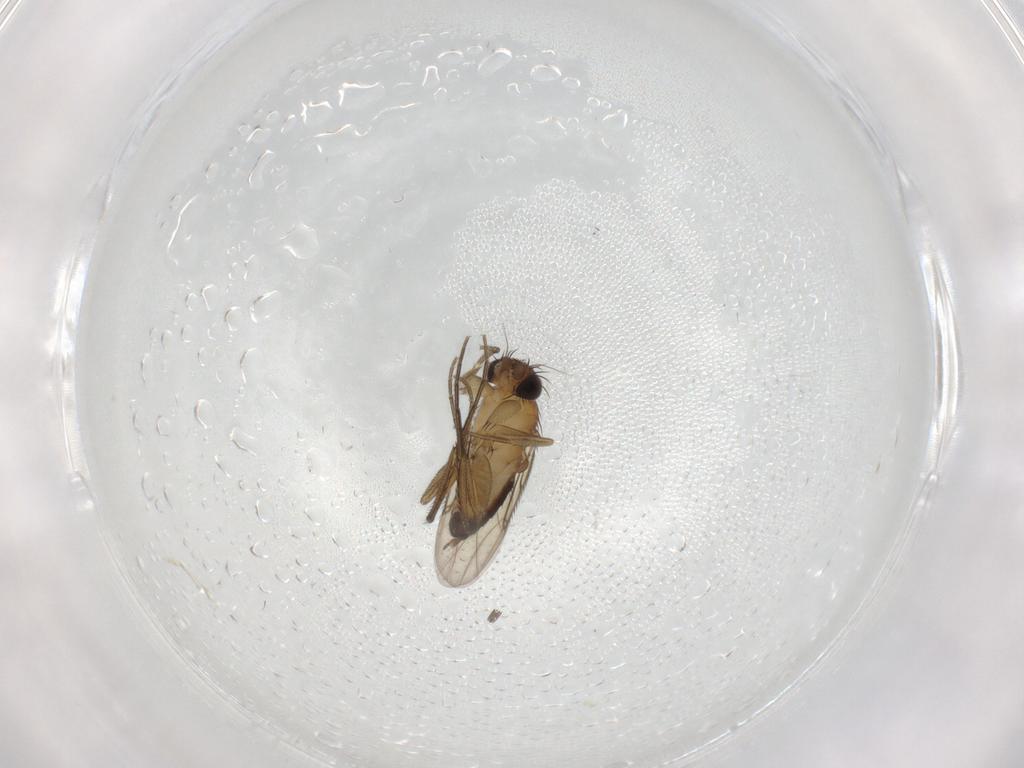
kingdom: Animalia
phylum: Arthropoda
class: Insecta
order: Diptera
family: Phoridae
